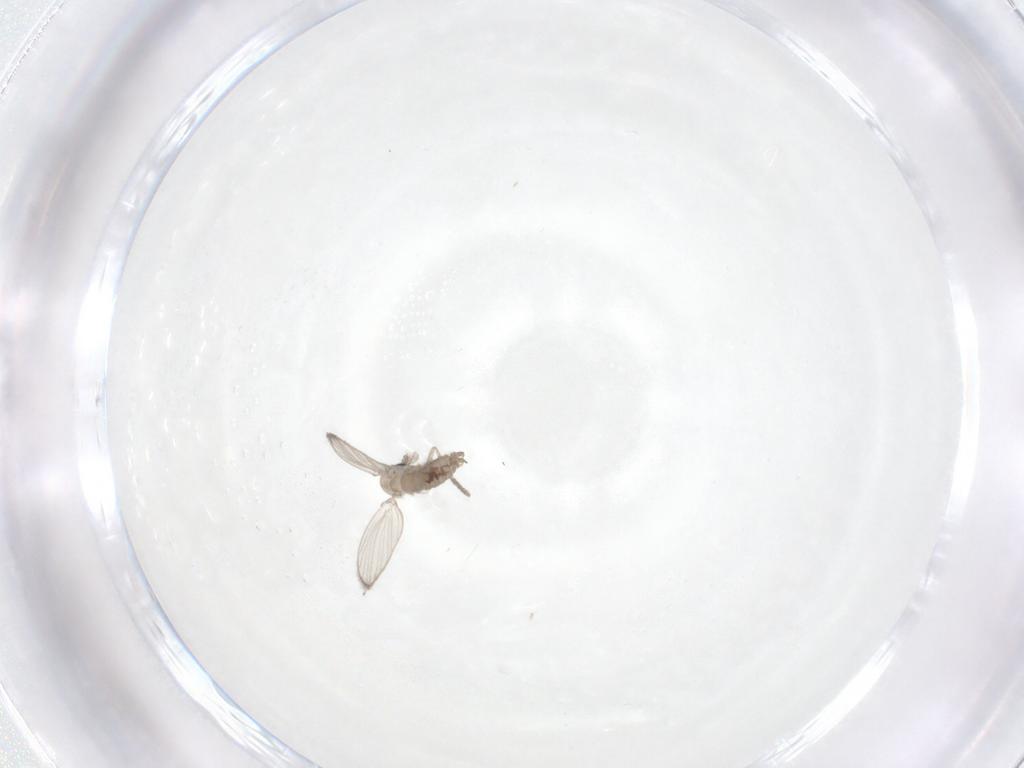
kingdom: Animalia
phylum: Arthropoda
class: Insecta
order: Diptera
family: Psychodidae
